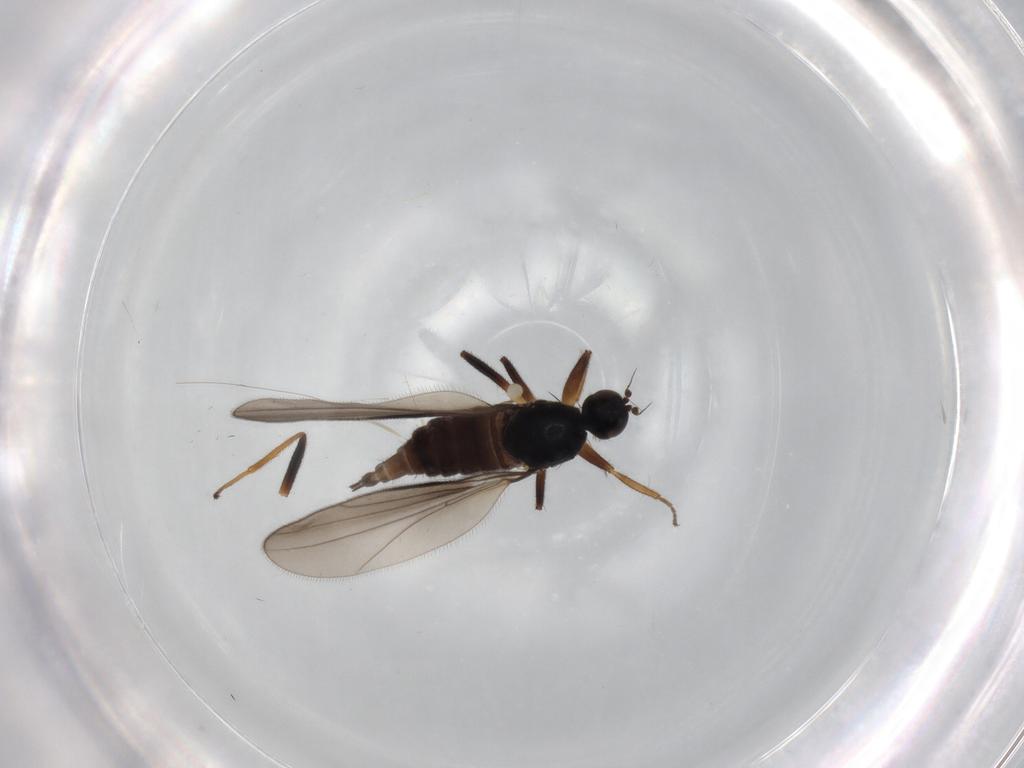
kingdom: Animalia
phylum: Arthropoda
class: Insecta
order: Diptera
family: Hybotidae
